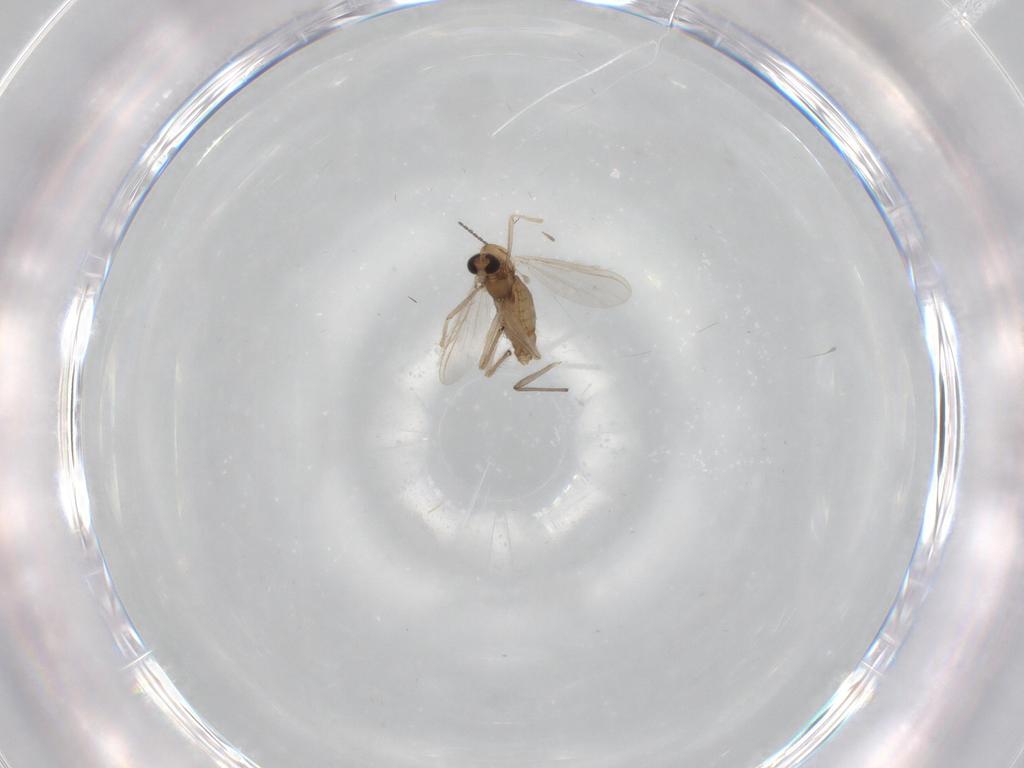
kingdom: Animalia
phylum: Arthropoda
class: Insecta
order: Diptera
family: Chironomidae
